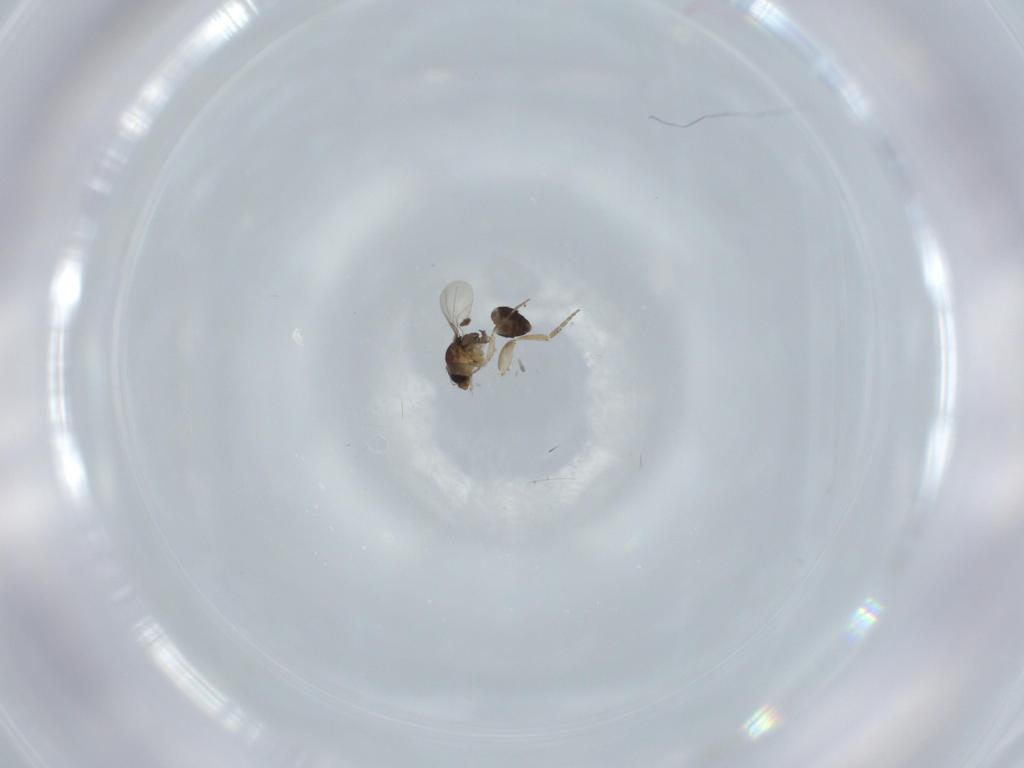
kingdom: Animalia
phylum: Arthropoda
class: Insecta
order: Diptera
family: Phoridae
